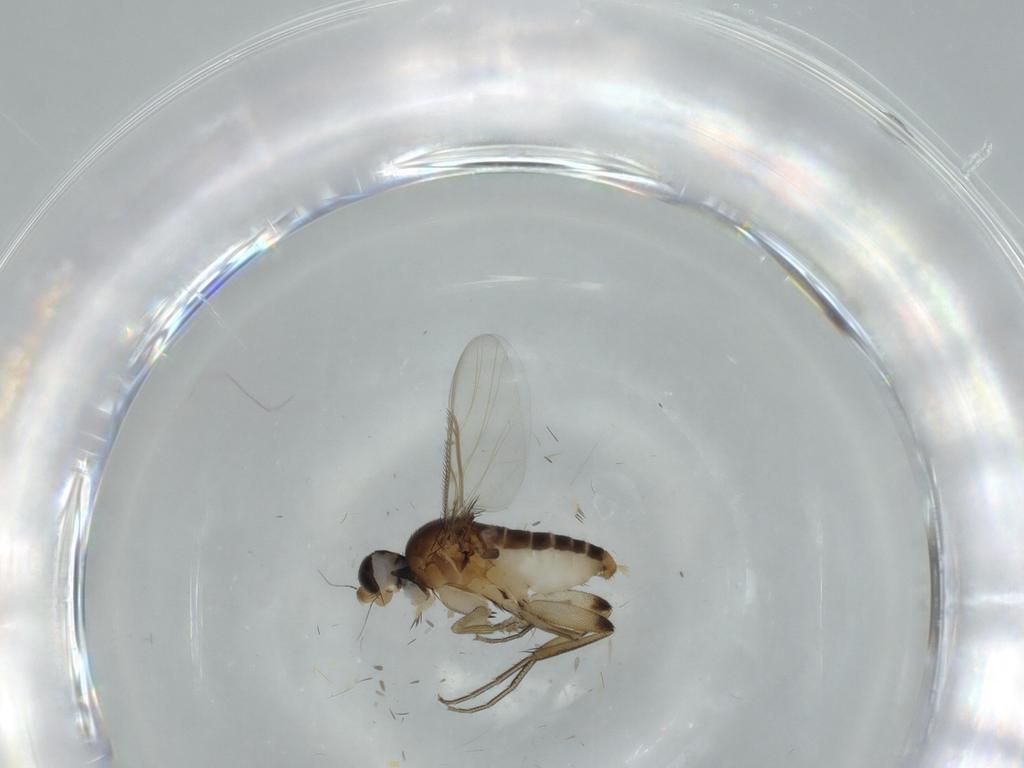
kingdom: Animalia
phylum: Arthropoda
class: Insecta
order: Diptera
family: Phoridae
